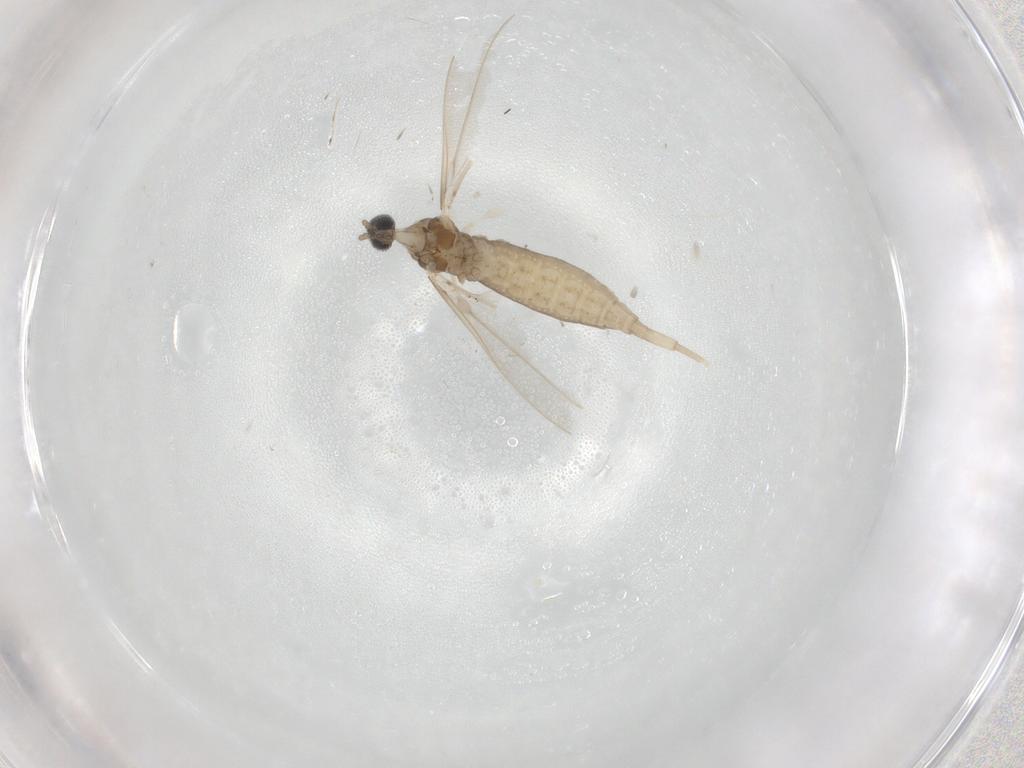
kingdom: Animalia
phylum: Arthropoda
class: Insecta
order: Diptera
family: Cecidomyiidae
